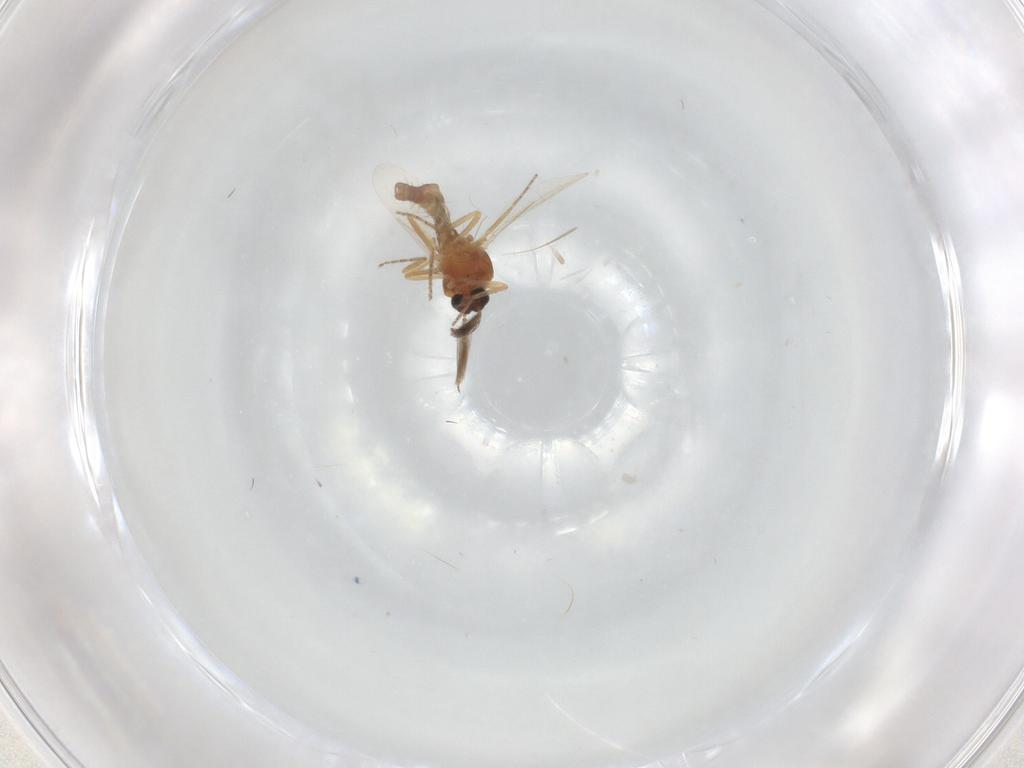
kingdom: Animalia
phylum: Arthropoda
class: Insecta
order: Diptera
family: Ceratopogonidae
